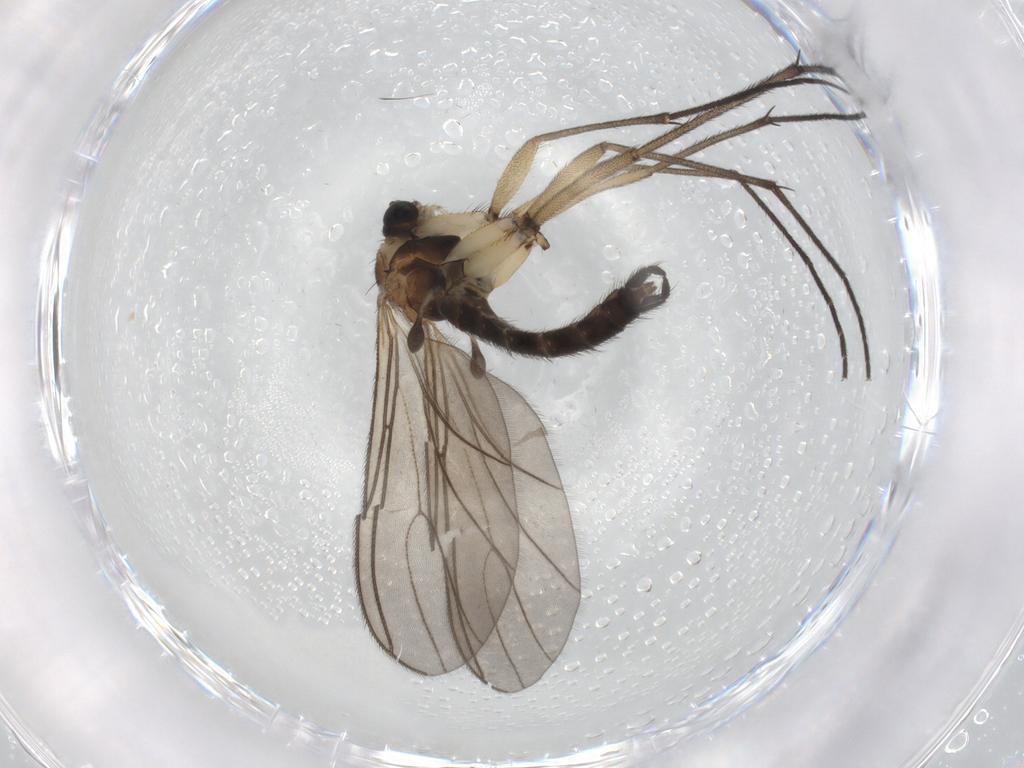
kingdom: Animalia
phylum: Arthropoda
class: Insecta
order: Diptera
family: Sciaridae
